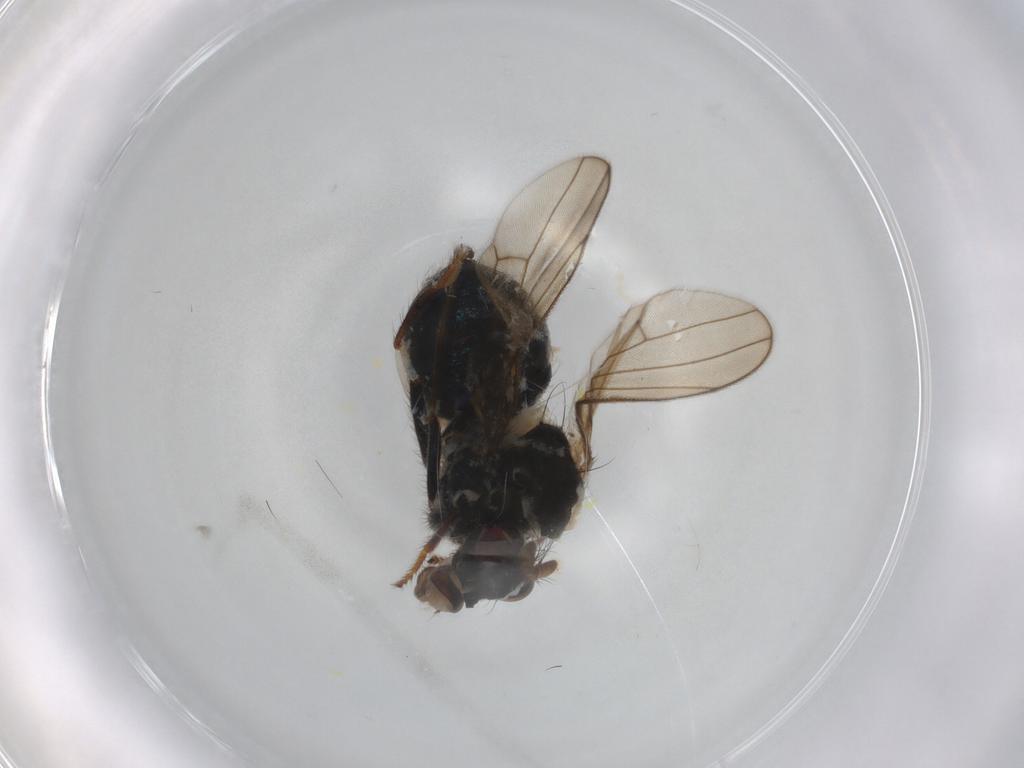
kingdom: Animalia
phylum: Arthropoda
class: Insecta
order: Diptera
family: Ephydridae
